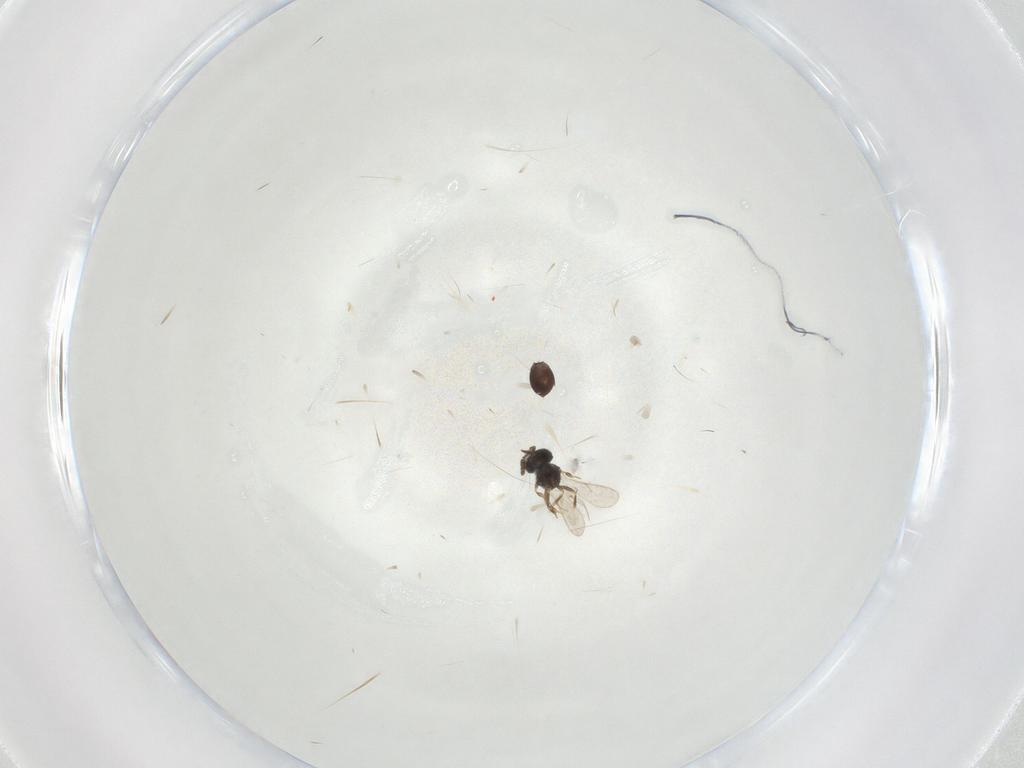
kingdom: Animalia
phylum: Arthropoda
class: Insecta
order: Hymenoptera
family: Scelionidae
